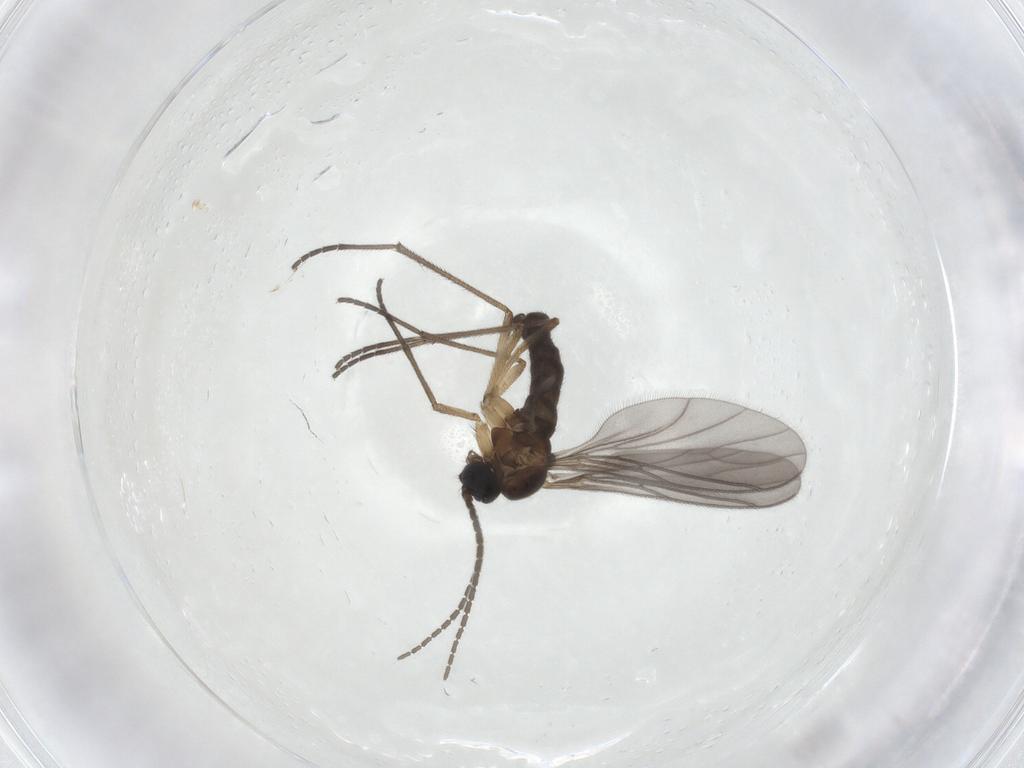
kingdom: Animalia
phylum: Arthropoda
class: Insecta
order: Diptera
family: Sciaridae
